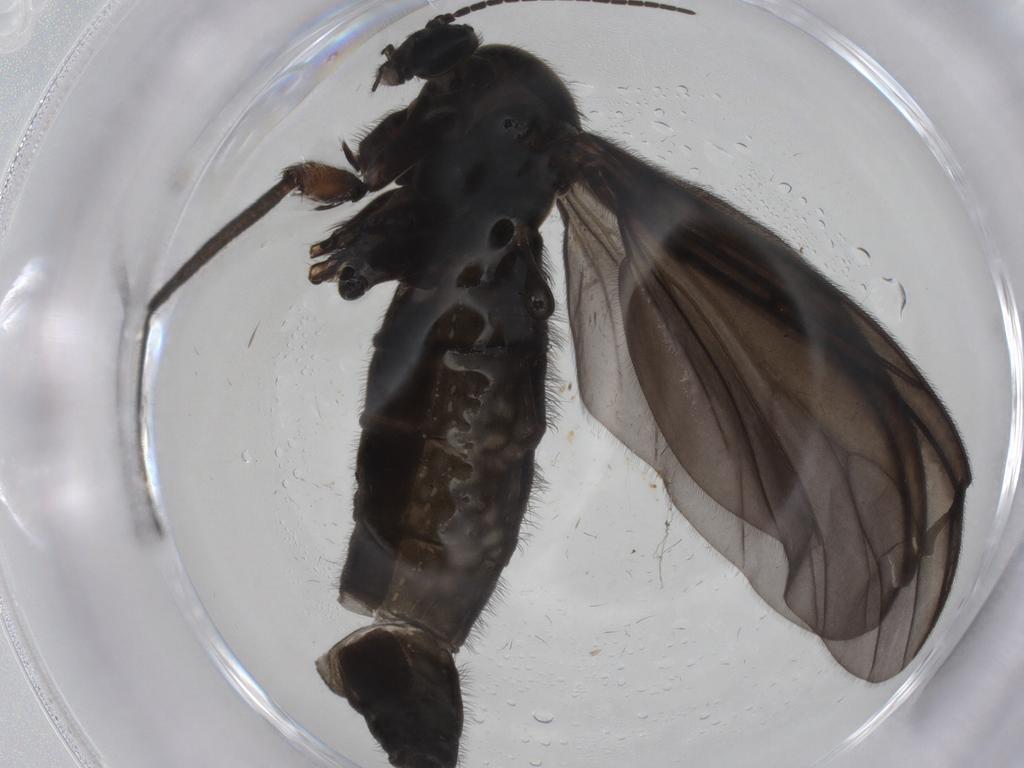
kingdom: Animalia
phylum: Arthropoda
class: Insecta
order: Diptera
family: Sciaridae
